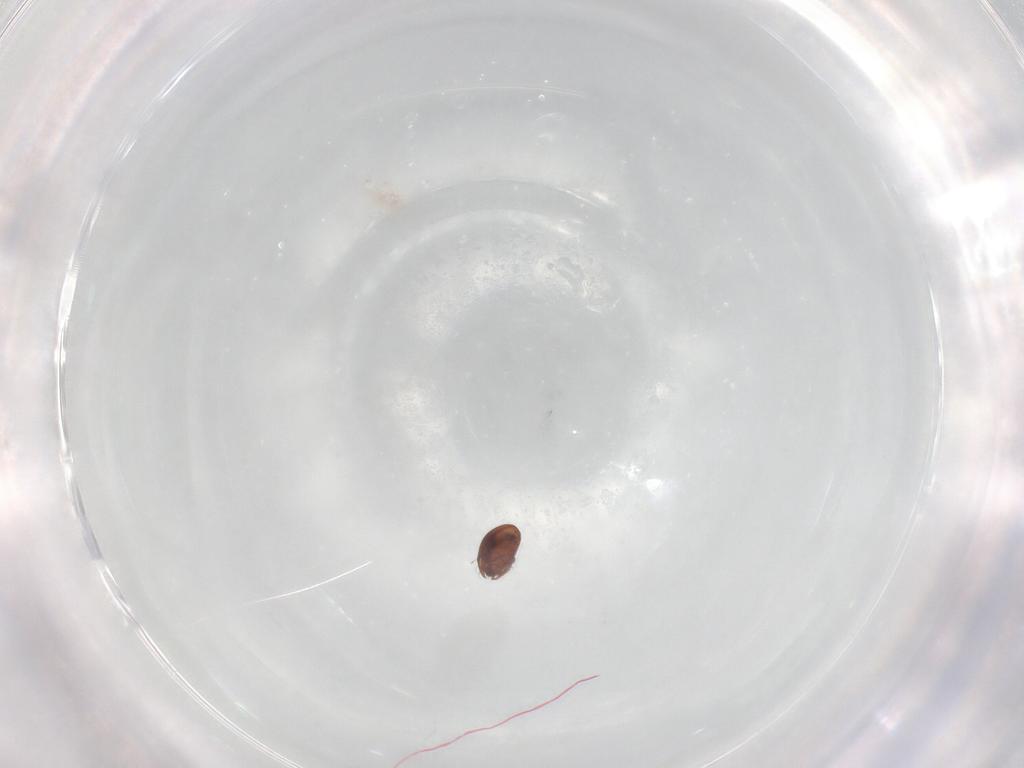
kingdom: Animalia
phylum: Arthropoda
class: Arachnida
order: Sarcoptiformes
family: Achipteriidae
